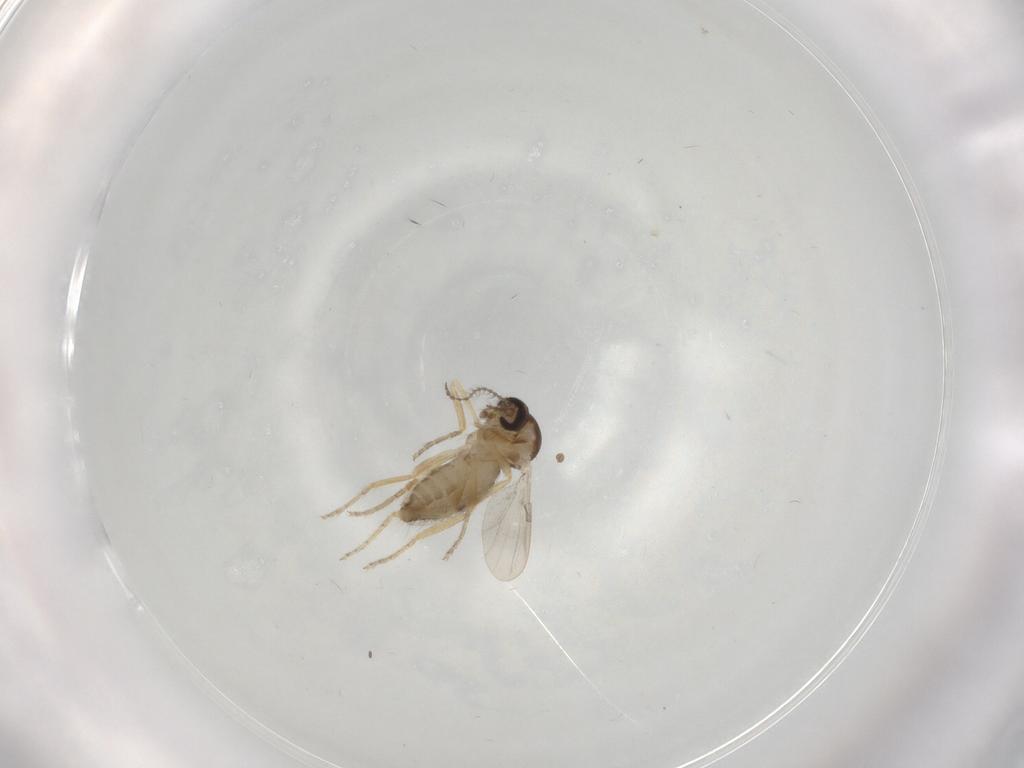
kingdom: Animalia
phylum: Arthropoda
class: Insecta
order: Diptera
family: Ceratopogonidae
